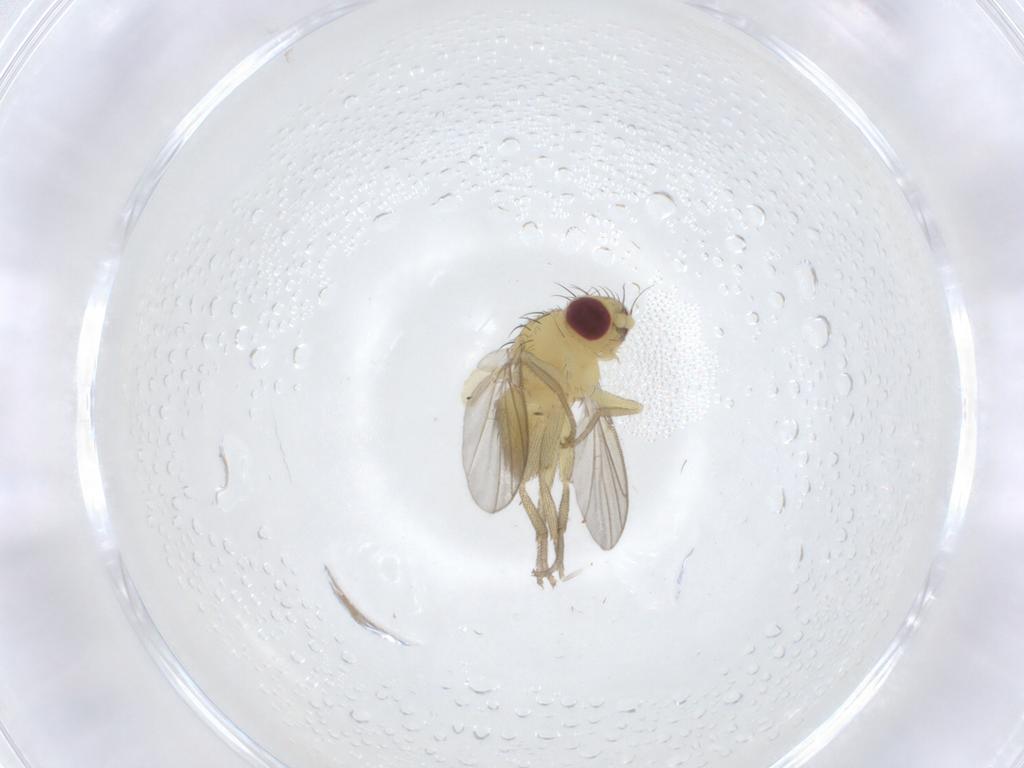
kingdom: Animalia
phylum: Arthropoda
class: Insecta
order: Diptera
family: Agromyzidae
